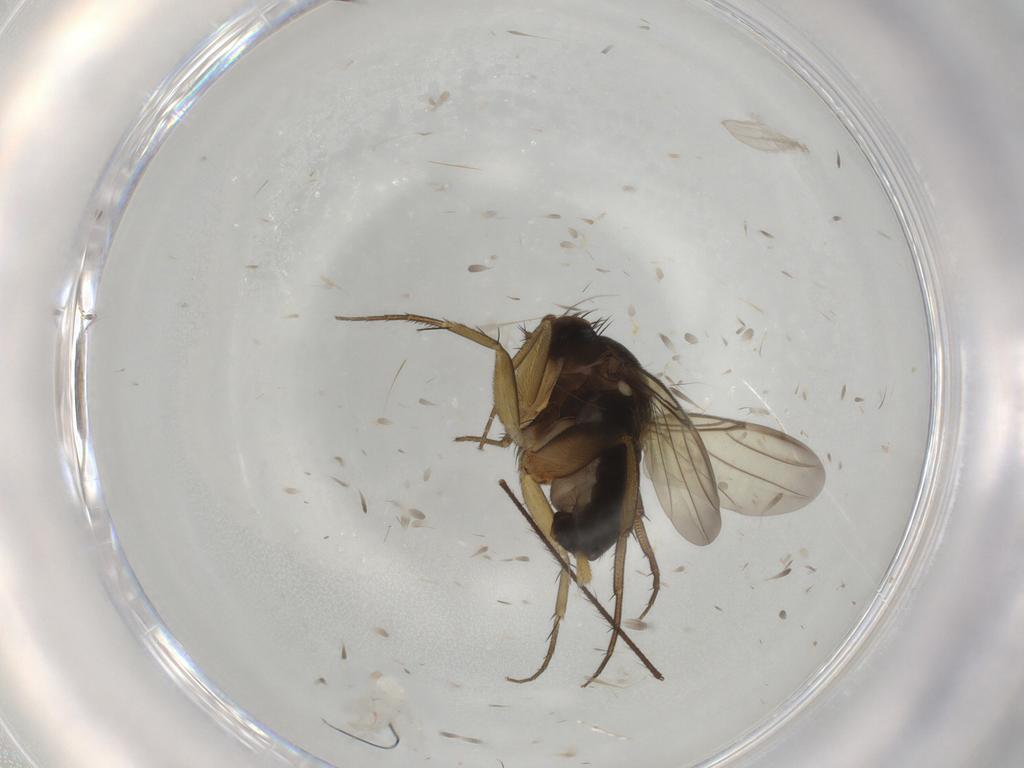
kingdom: Animalia
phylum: Arthropoda
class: Insecta
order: Diptera
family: Phoridae
